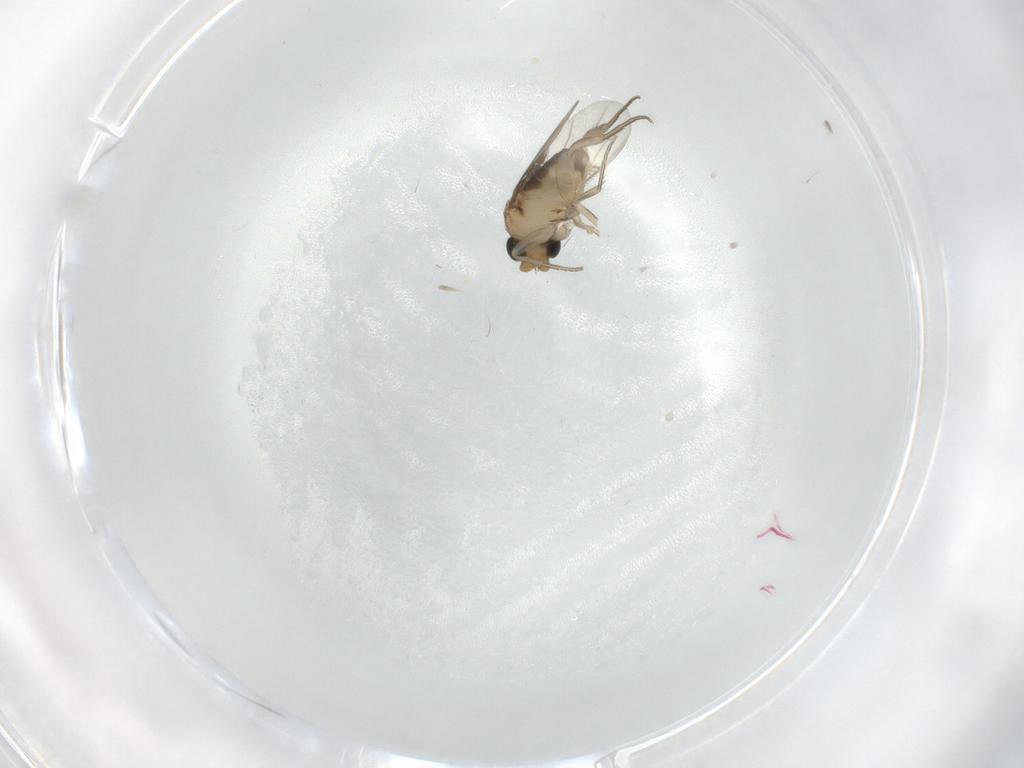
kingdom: Animalia
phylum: Arthropoda
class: Insecta
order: Diptera
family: Phoridae
